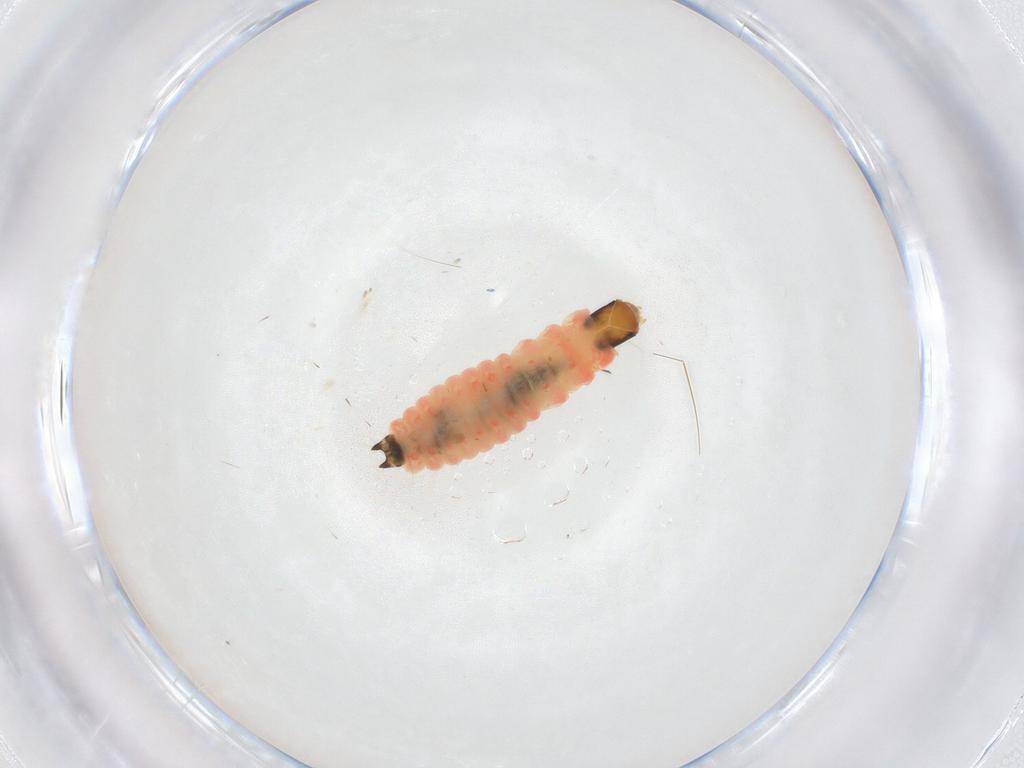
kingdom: Animalia
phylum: Arthropoda
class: Insecta
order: Coleoptera
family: Melyridae
